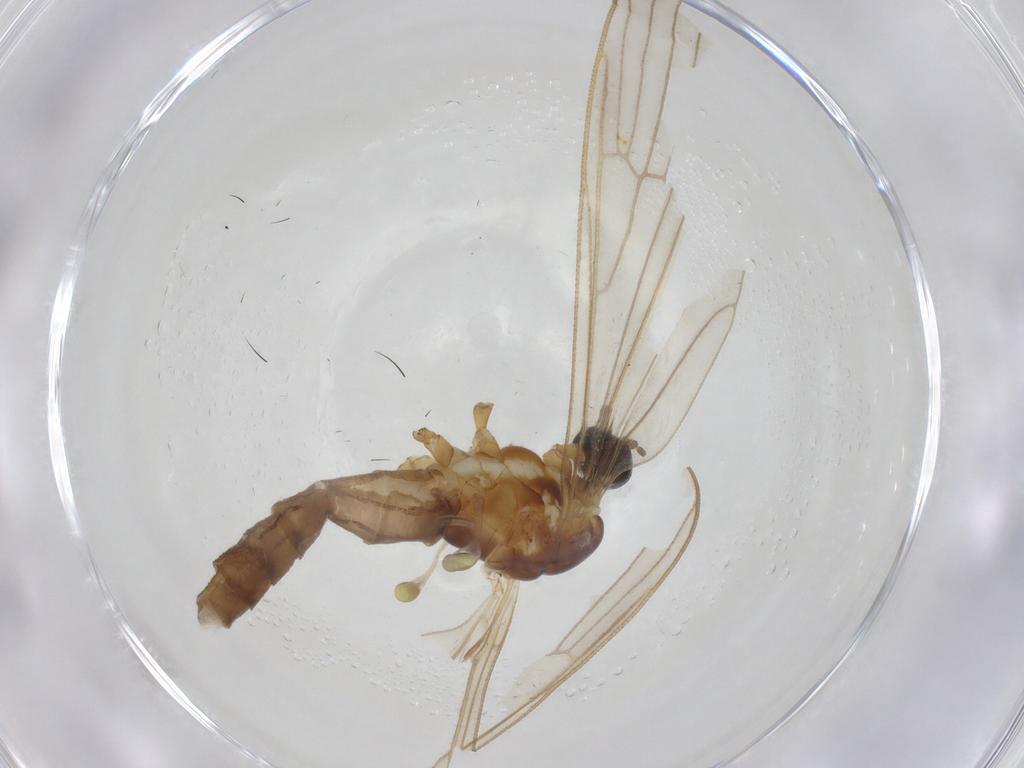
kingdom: Animalia
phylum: Arthropoda
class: Insecta
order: Diptera
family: Limoniidae
